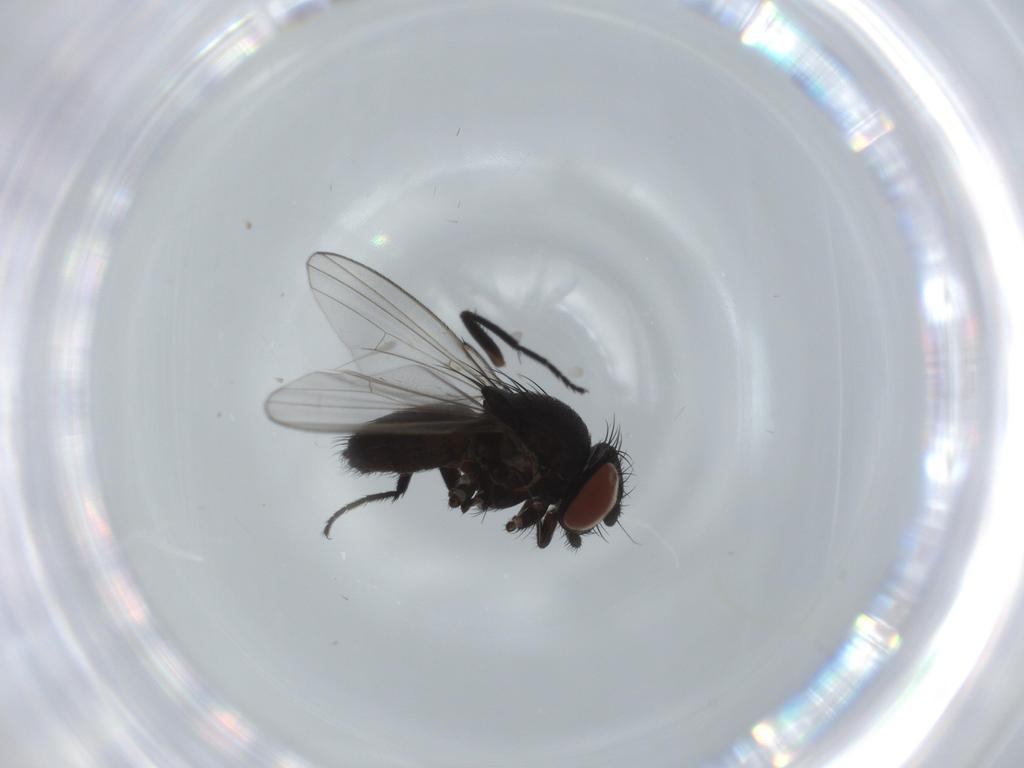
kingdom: Animalia
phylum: Arthropoda
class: Insecta
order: Diptera
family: Milichiidae
